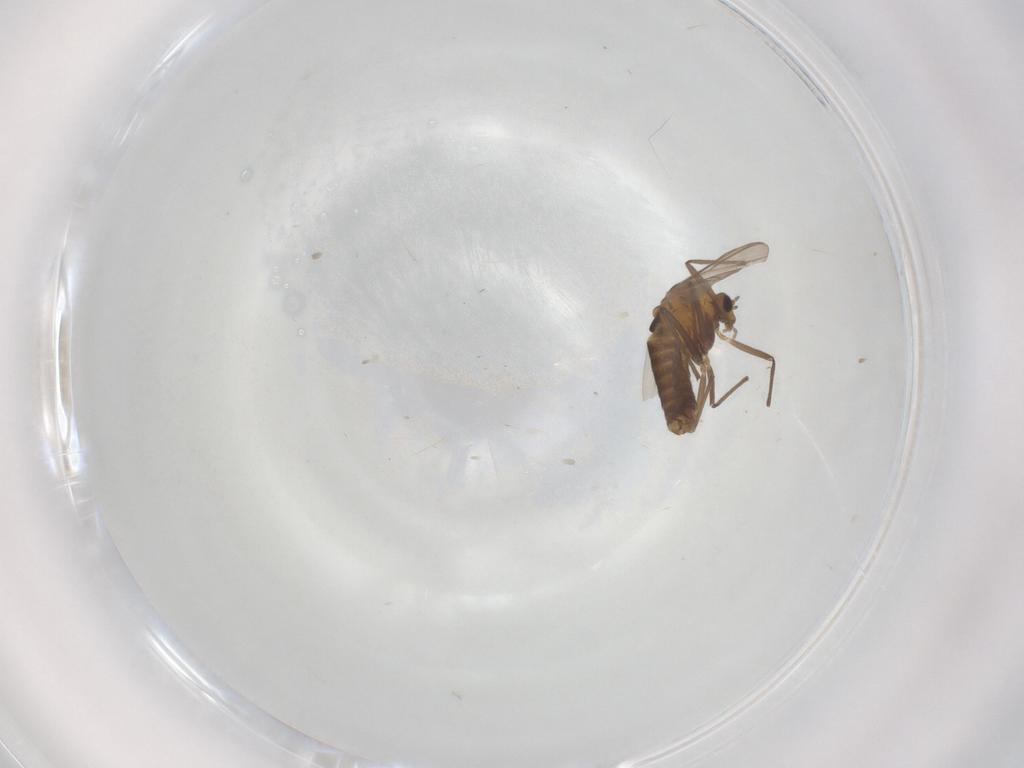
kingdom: Animalia
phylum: Arthropoda
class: Insecta
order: Diptera
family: Chironomidae
